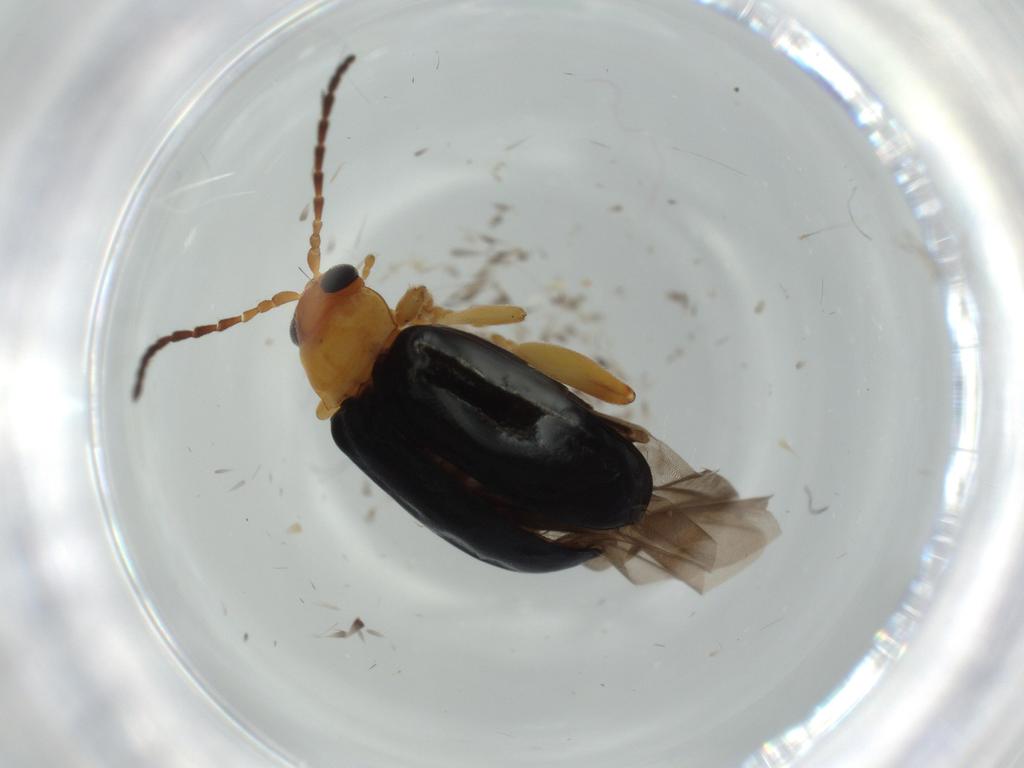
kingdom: Animalia
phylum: Arthropoda
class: Insecta
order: Coleoptera
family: Chrysomelidae
